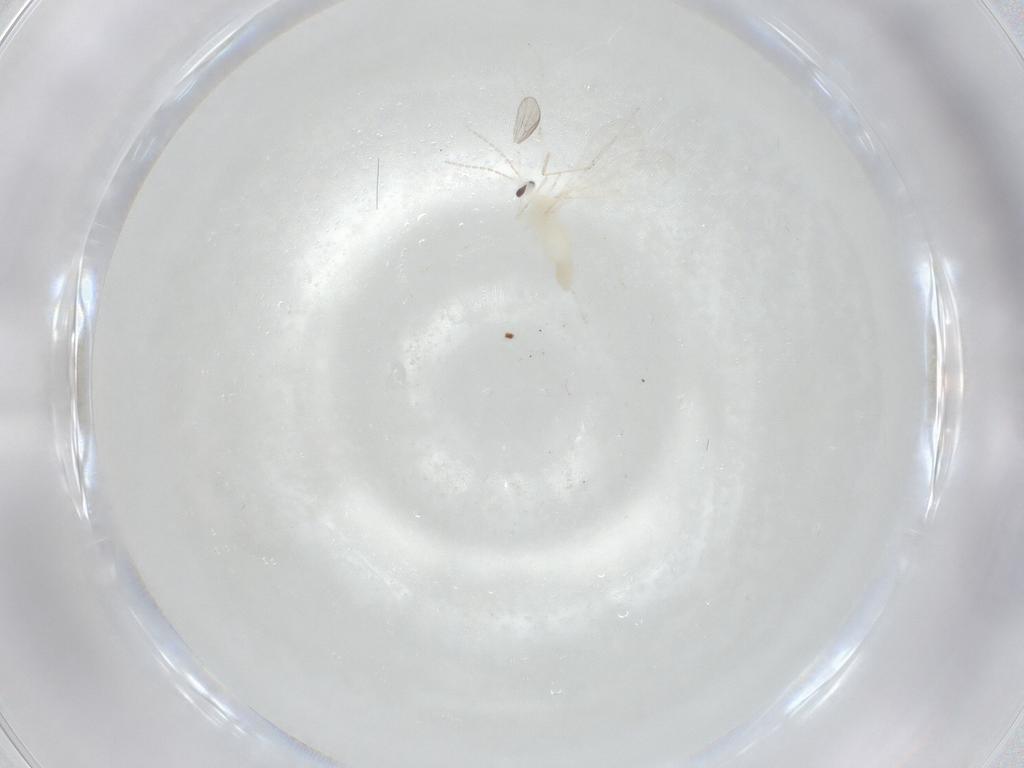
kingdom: Animalia
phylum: Arthropoda
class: Insecta
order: Diptera
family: Cecidomyiidae
